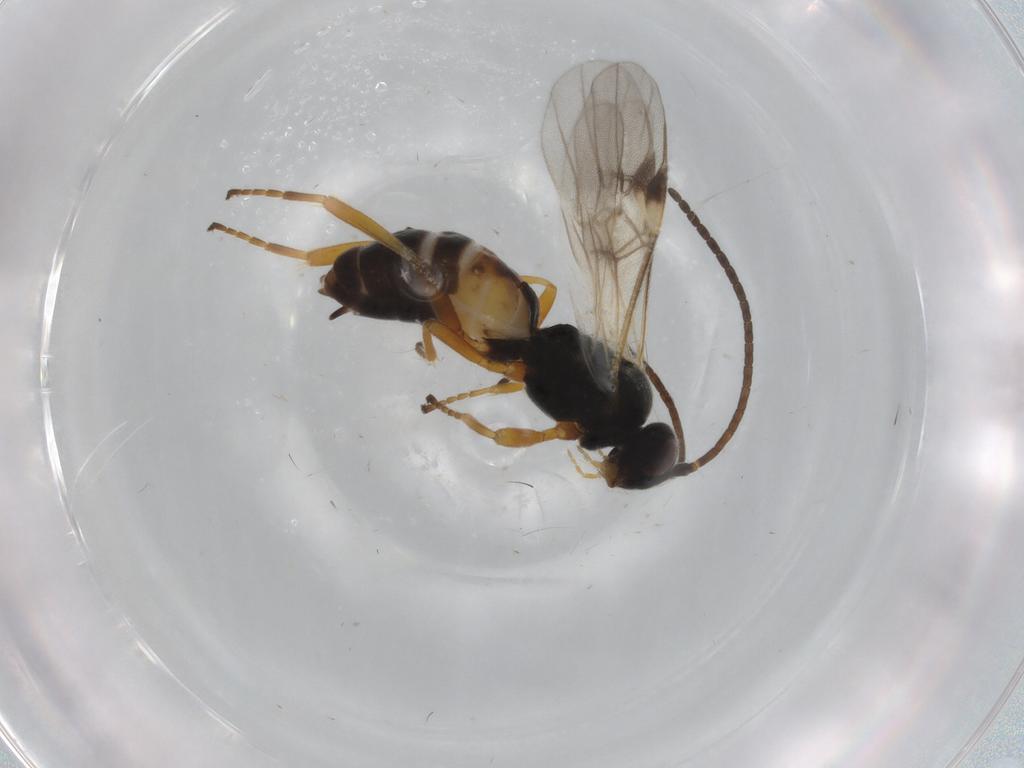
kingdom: Animalia
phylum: Arthropoda
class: Insecta
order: Hymenoptera
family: Braconidae
